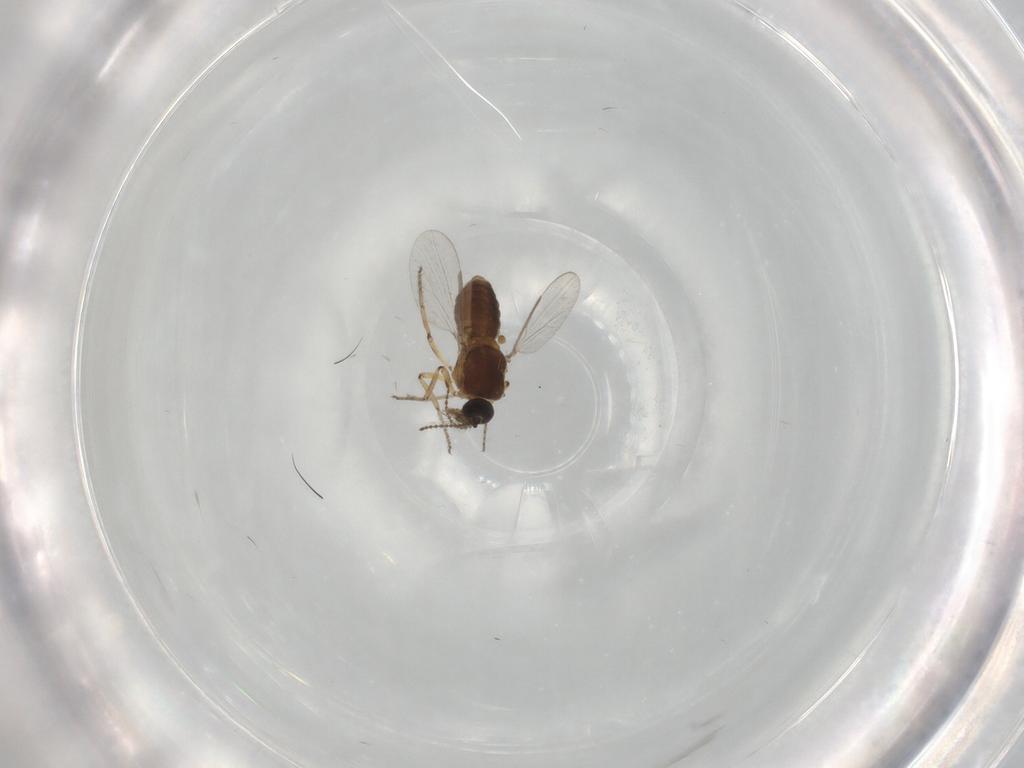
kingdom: Animalia
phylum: Arthropoda
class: Insecta
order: Diptera
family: Ceratopogonidae
